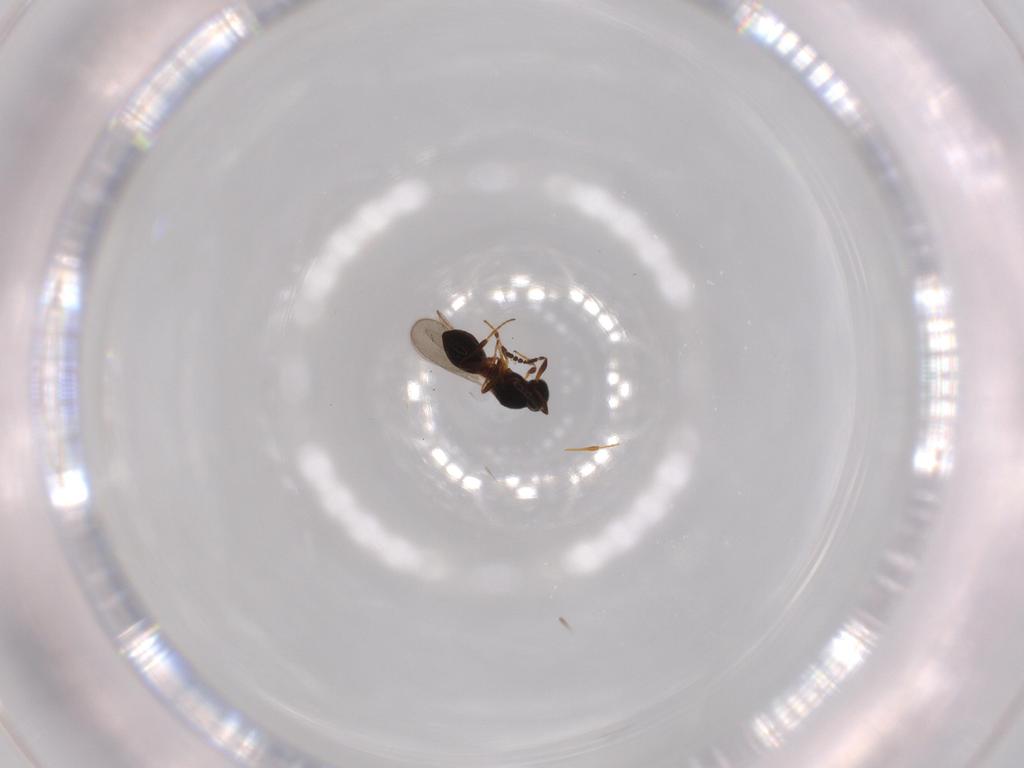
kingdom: Animalia
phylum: Arthropoda
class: Insecta
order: Hymenoptera
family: Platygastridae
